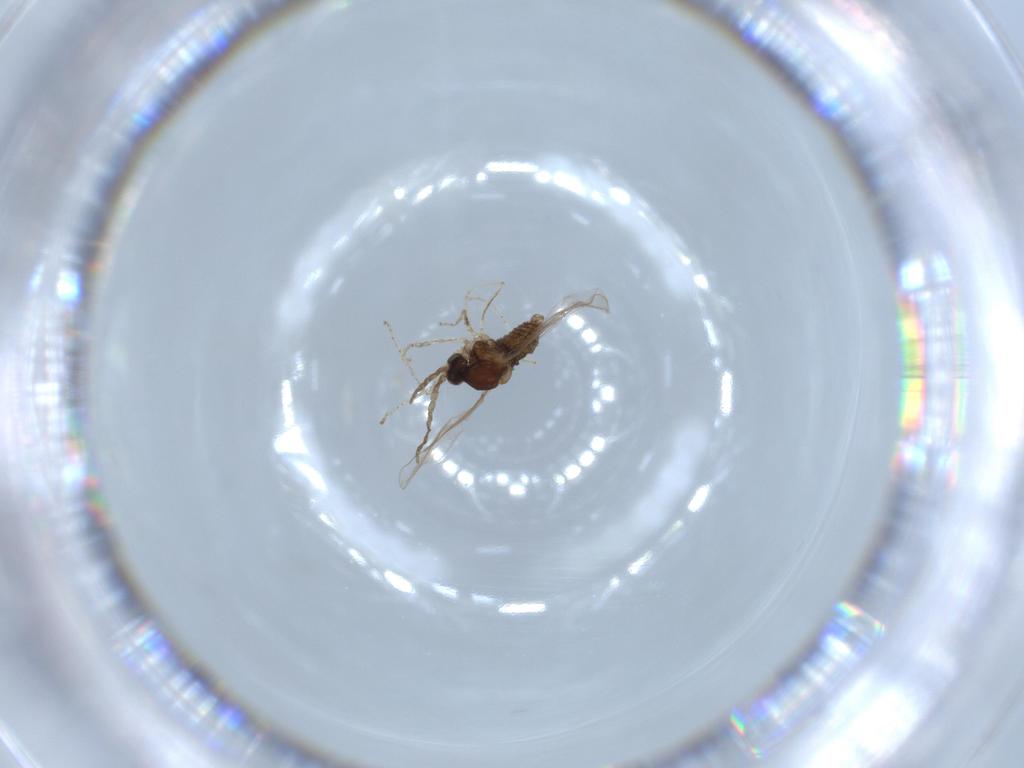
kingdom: Animalia
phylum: Arthropoda
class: Insecta
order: Diptera
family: Cecidomyiidae
